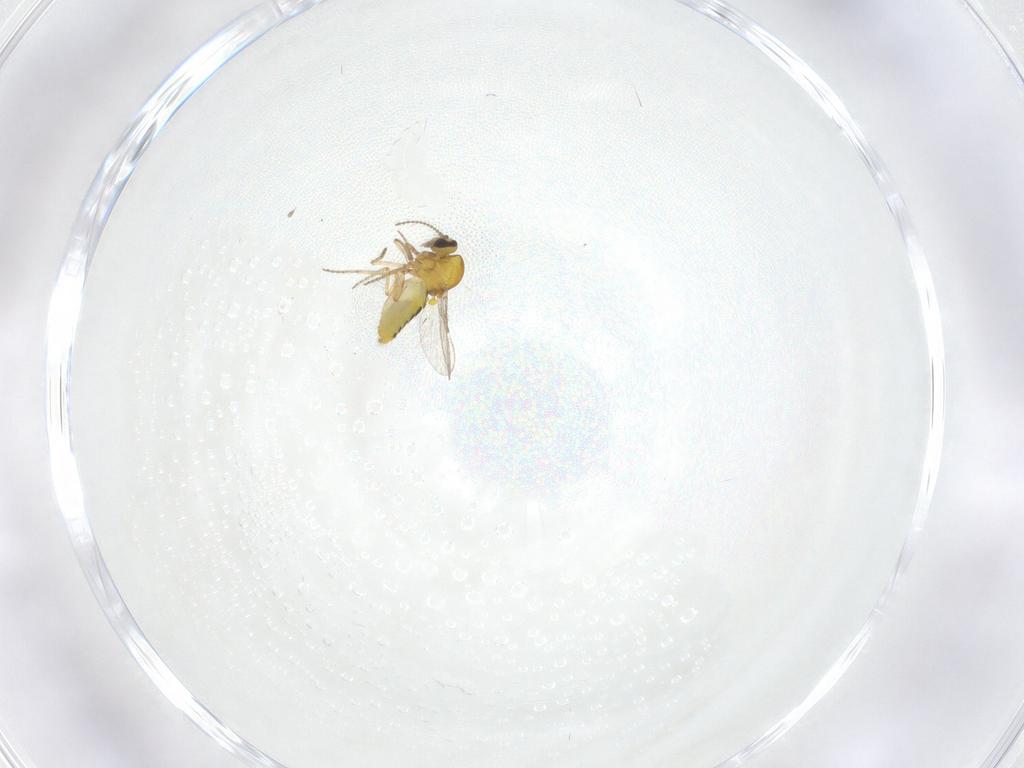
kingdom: Animalia
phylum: Arthropoda
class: Insecta
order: Diptera
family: Ceratopogonidae
